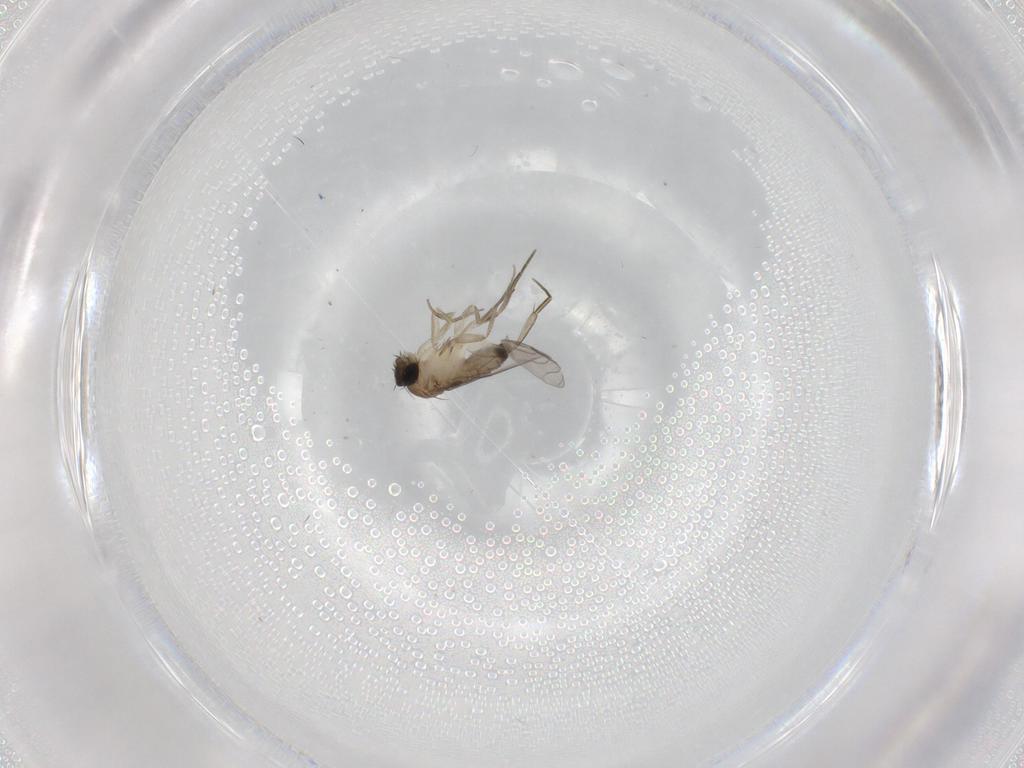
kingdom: Animalia
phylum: Arthropoda
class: Insecta
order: Diptera
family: Phoridae
